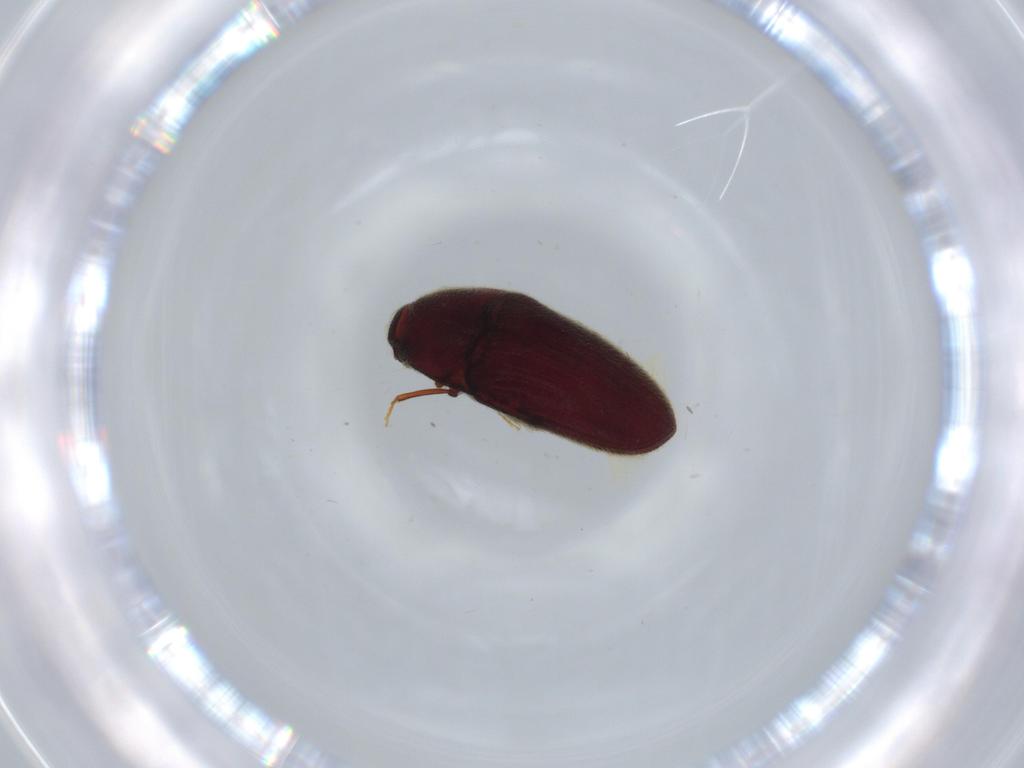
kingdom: Animalia
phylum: Arthropoda
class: Insecta
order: Coleoptera
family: Throscidae
